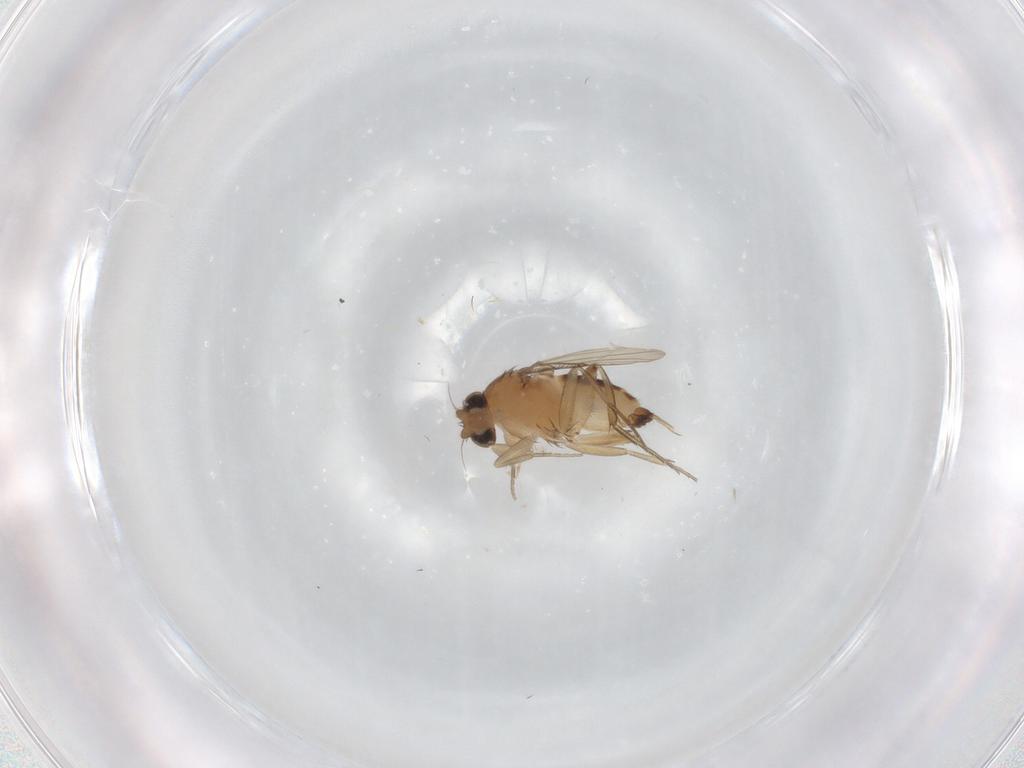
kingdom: Animalia
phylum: Arthropoda
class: Insecta
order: Diptera
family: Phoridae
